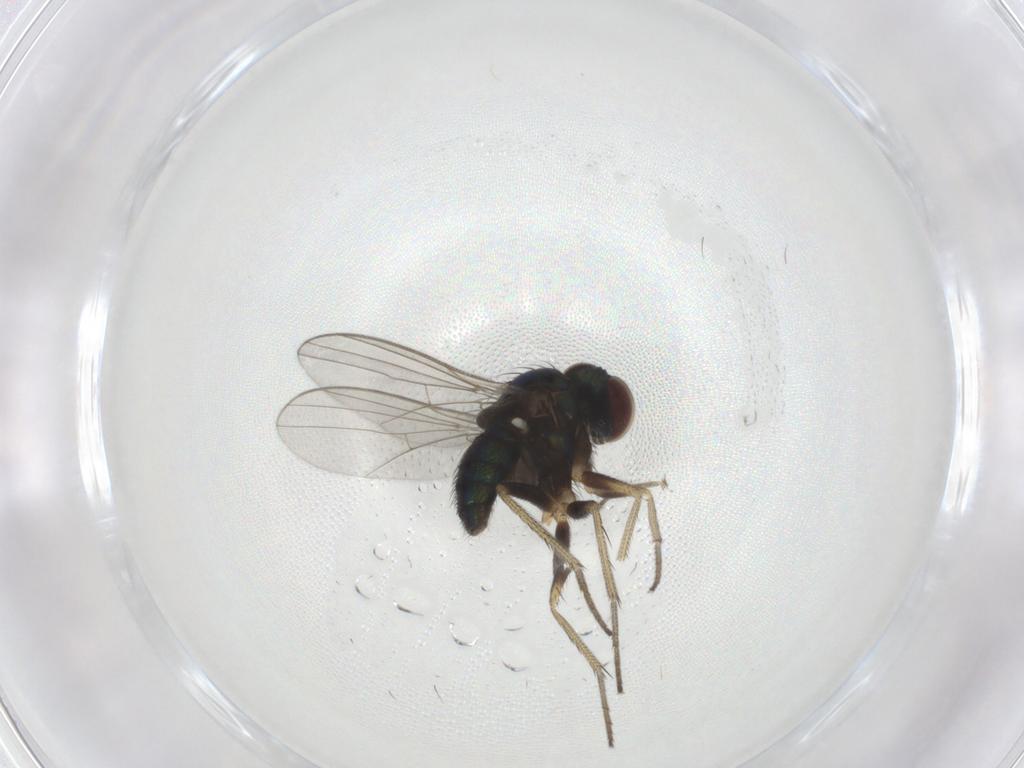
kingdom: Animalia
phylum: Arthropoda
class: Insecta
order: Diptera
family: Dolichopodidae
